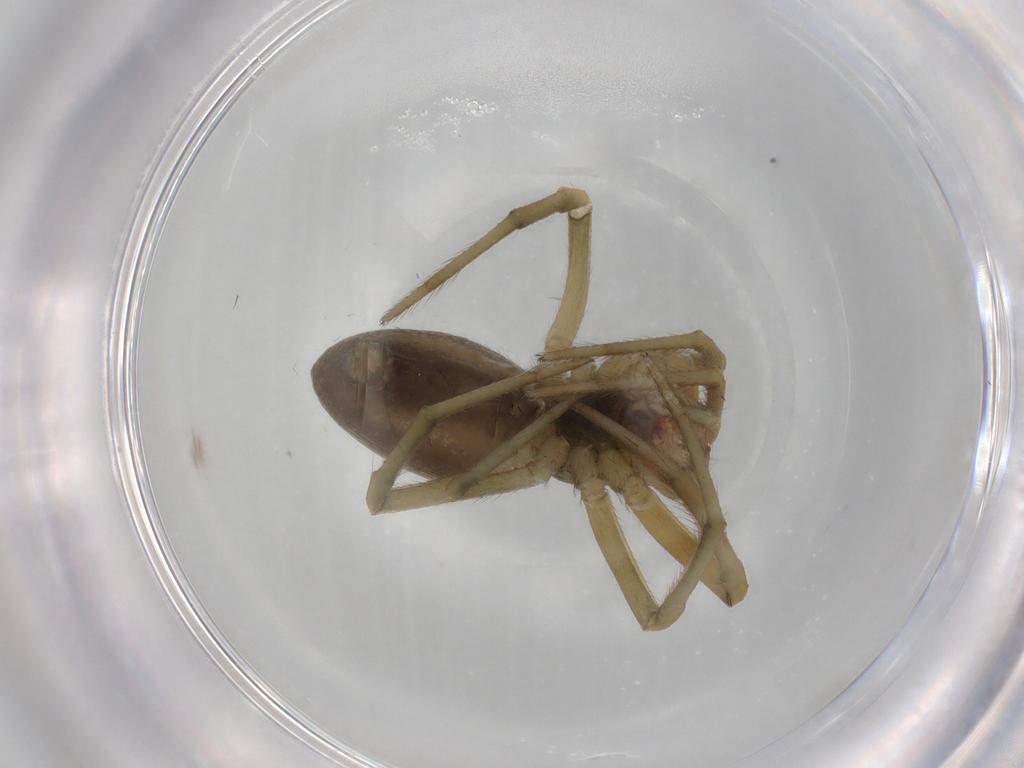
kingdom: Animalia
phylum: Arthropoda
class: Arachnida
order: Araneae
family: Araneidae
